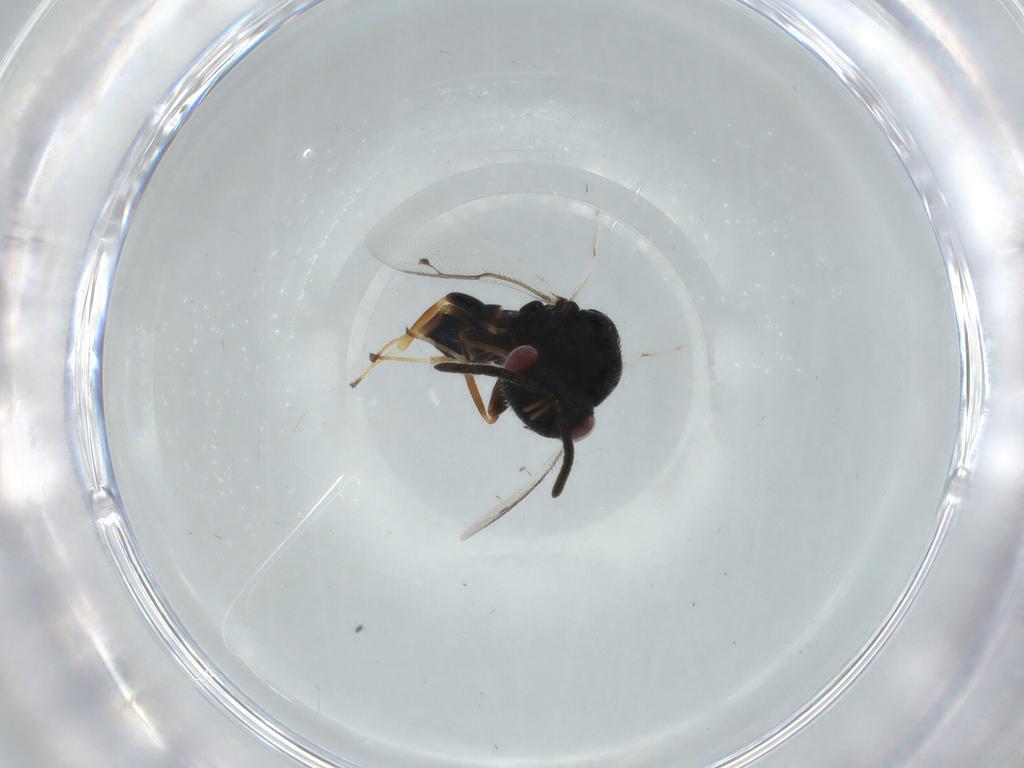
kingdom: Animalia
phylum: Arthropoda
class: Insecta
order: Hymenoptera
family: Pteromalidae
